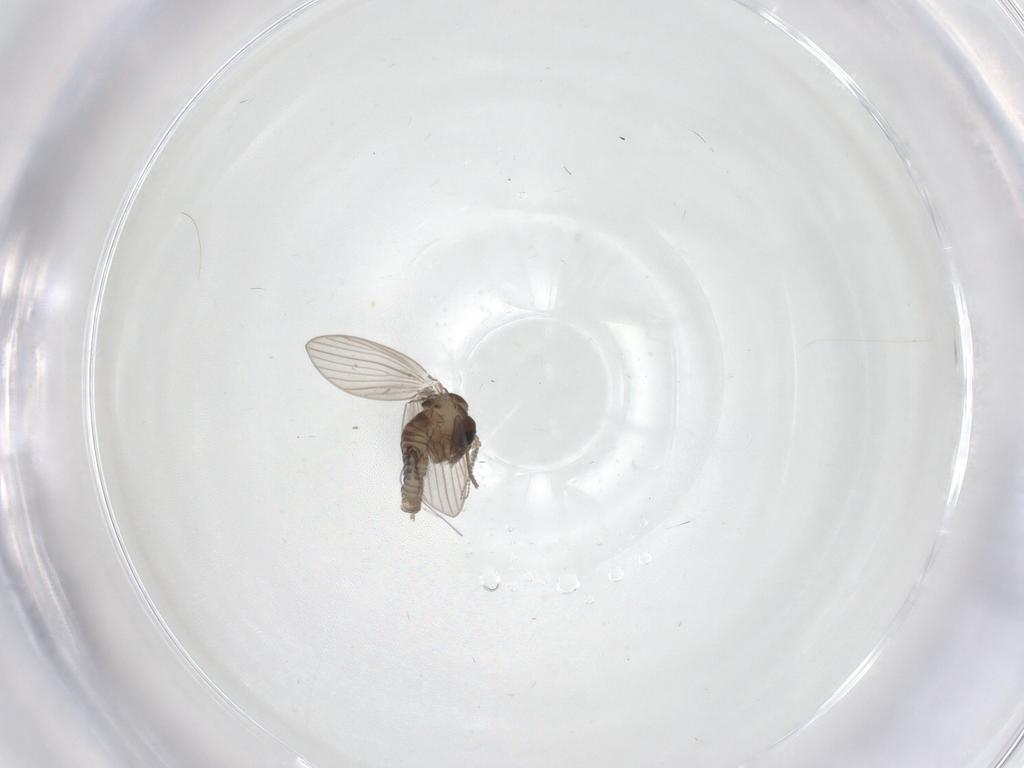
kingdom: Animalia
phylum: Arthropoda
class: Insecta
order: Diptera
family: Psychodidae
